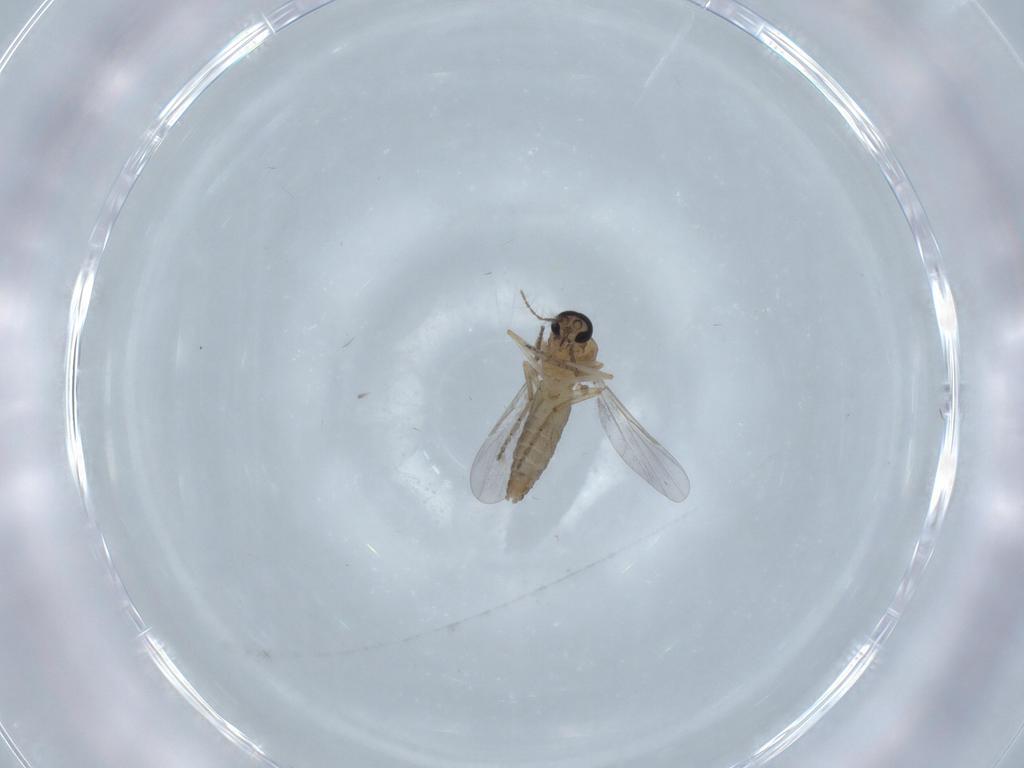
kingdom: Animalia
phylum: Arthropoda
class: Insecta
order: Diptera
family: Ceratopogonidae
